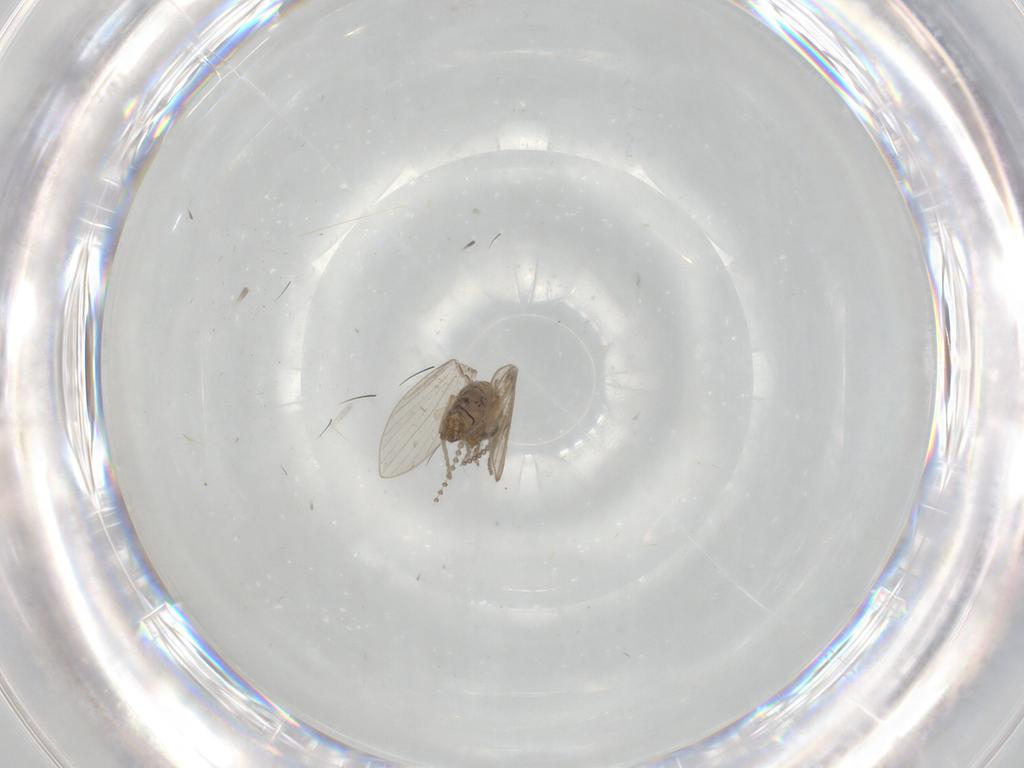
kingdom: Animalia
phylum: Arthropoda
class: Insecta
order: Diptera
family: Psychodidae
